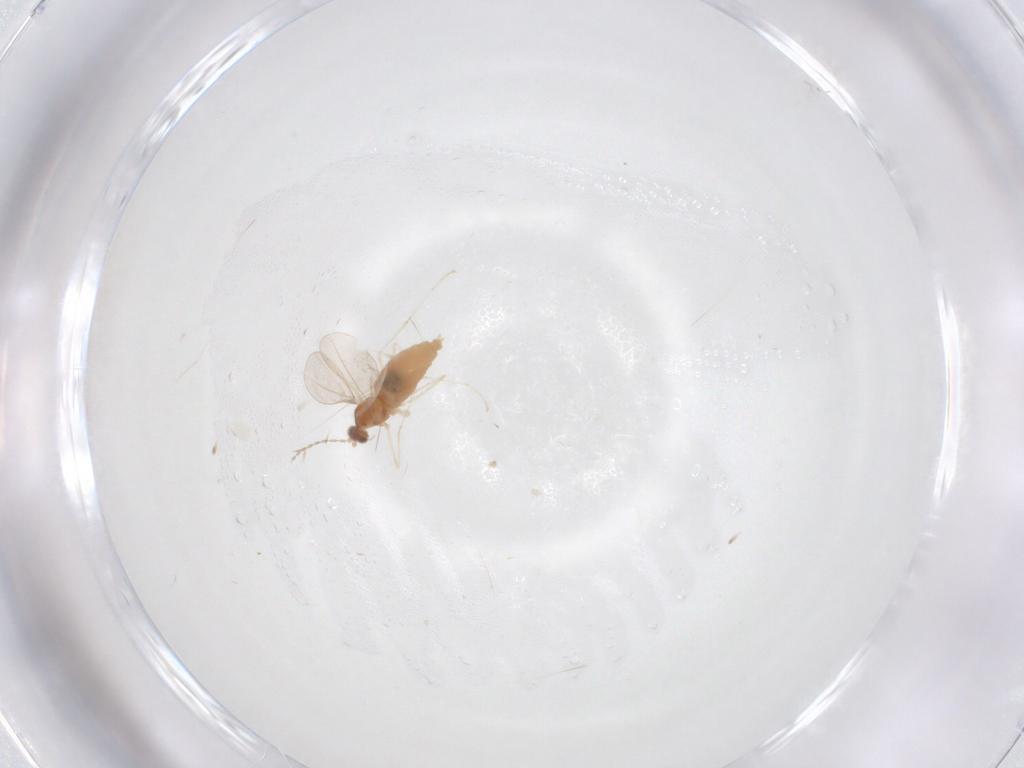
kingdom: Animalia
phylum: Arthropoda
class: Insecta
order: Diptera
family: Cecidomyiidae
